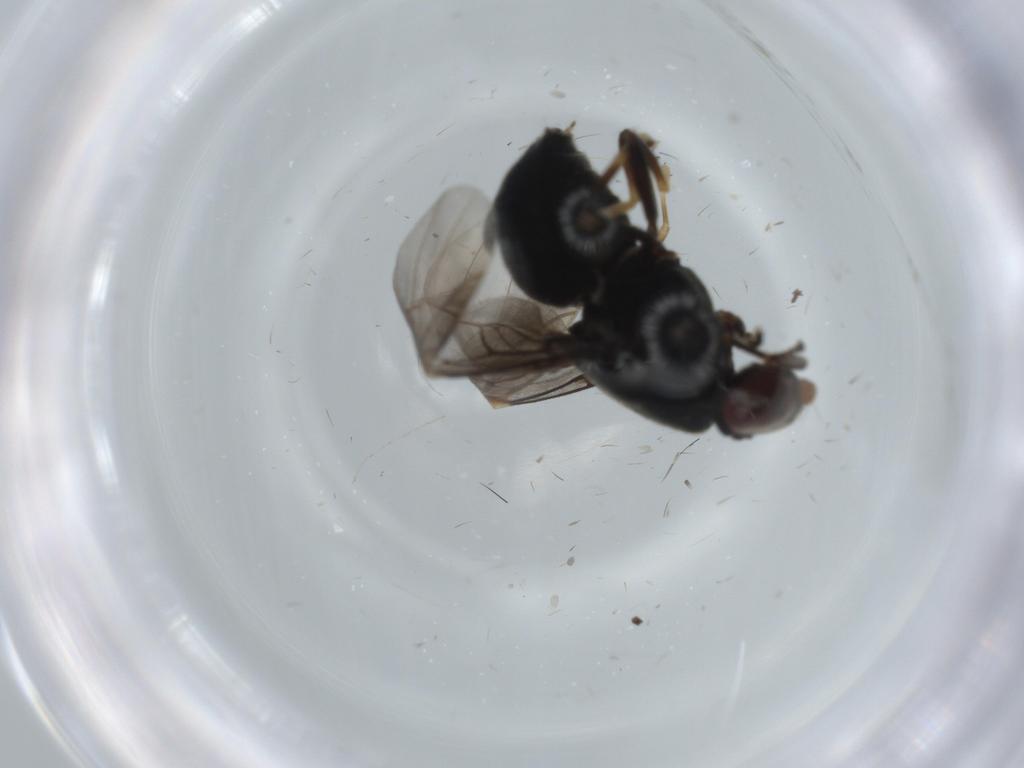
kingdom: Animalia
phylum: Arthropoda
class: Insecta
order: Diptera
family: Stratiomyidae
